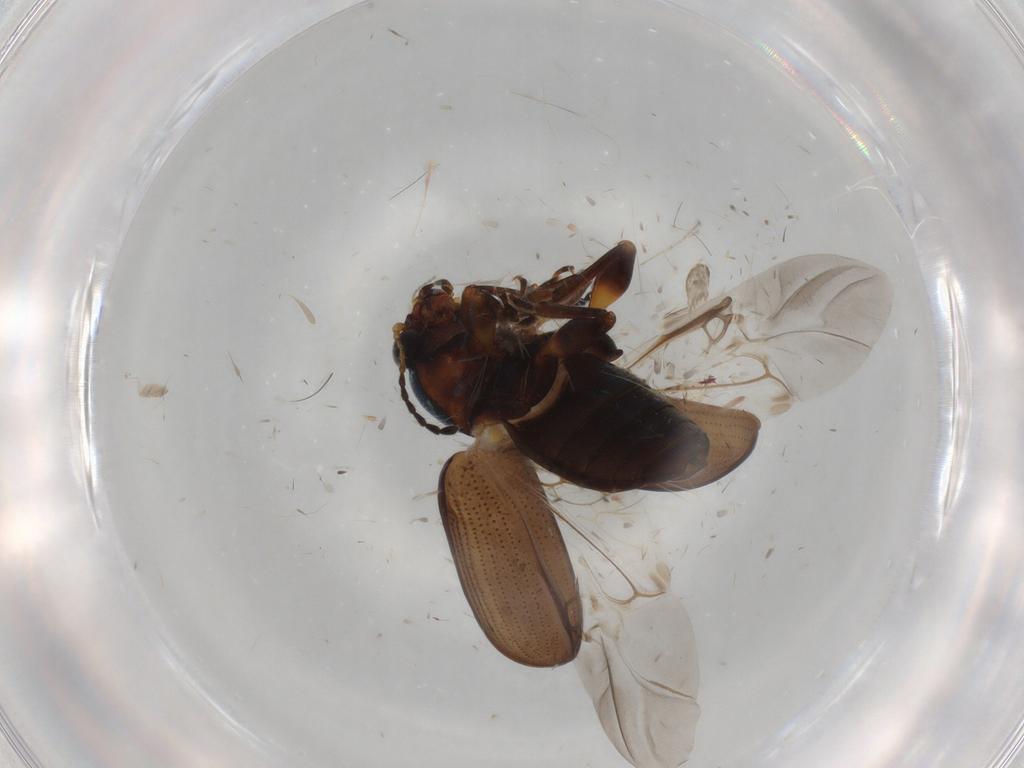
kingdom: Animalia
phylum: Arthropoda
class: Insecta
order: Coleoptera
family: Chrysomelidae
